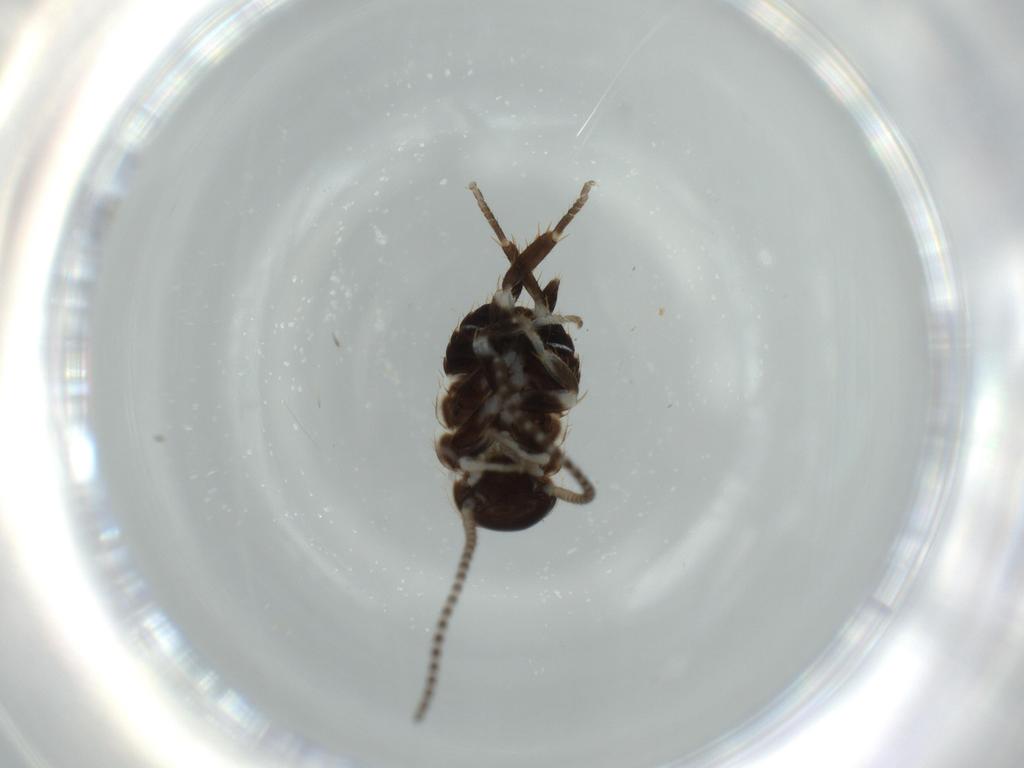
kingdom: Animalia
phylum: Arthropoda
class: Insecta
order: Blattodea
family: Ectobiidae
